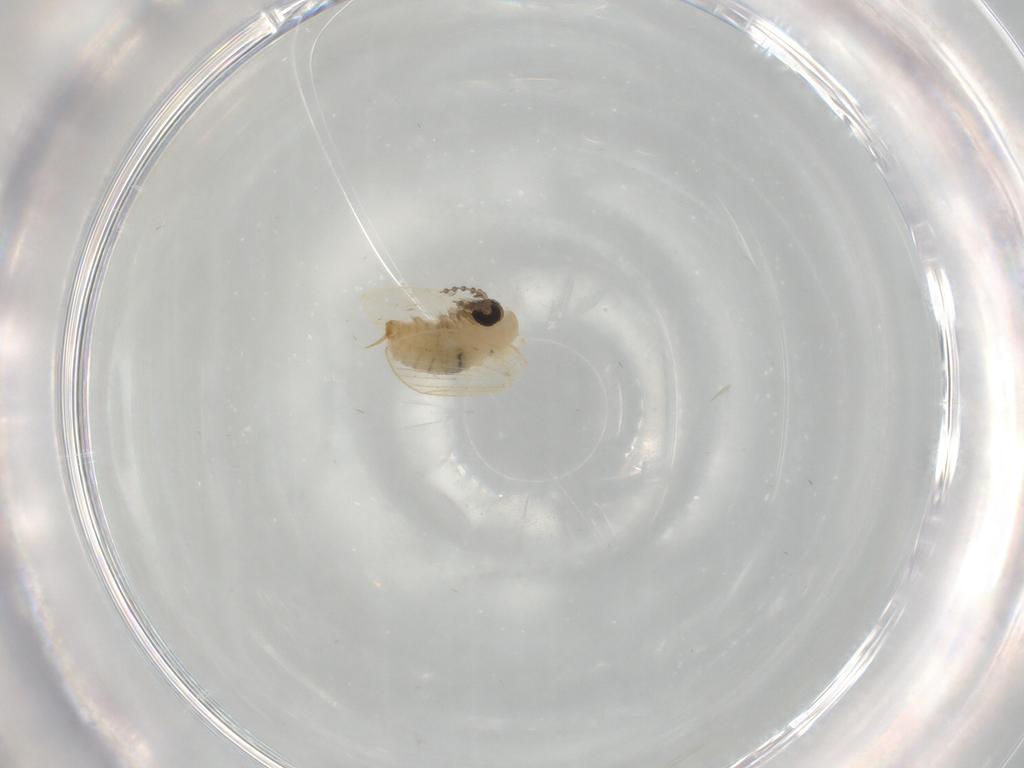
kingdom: Animalia
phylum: Arthropoda
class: Insecta
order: Diptera
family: Psychodidae
